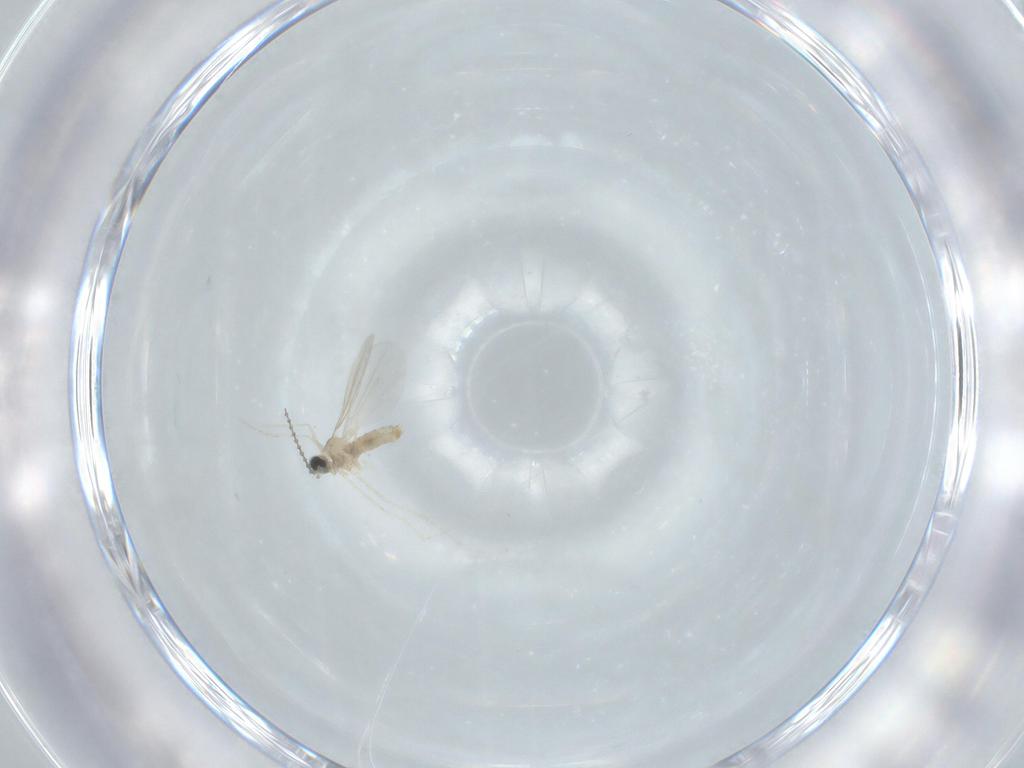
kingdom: Animalia
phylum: Arthropoda
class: Insecta
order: Diptera
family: Cecidomyiidae
